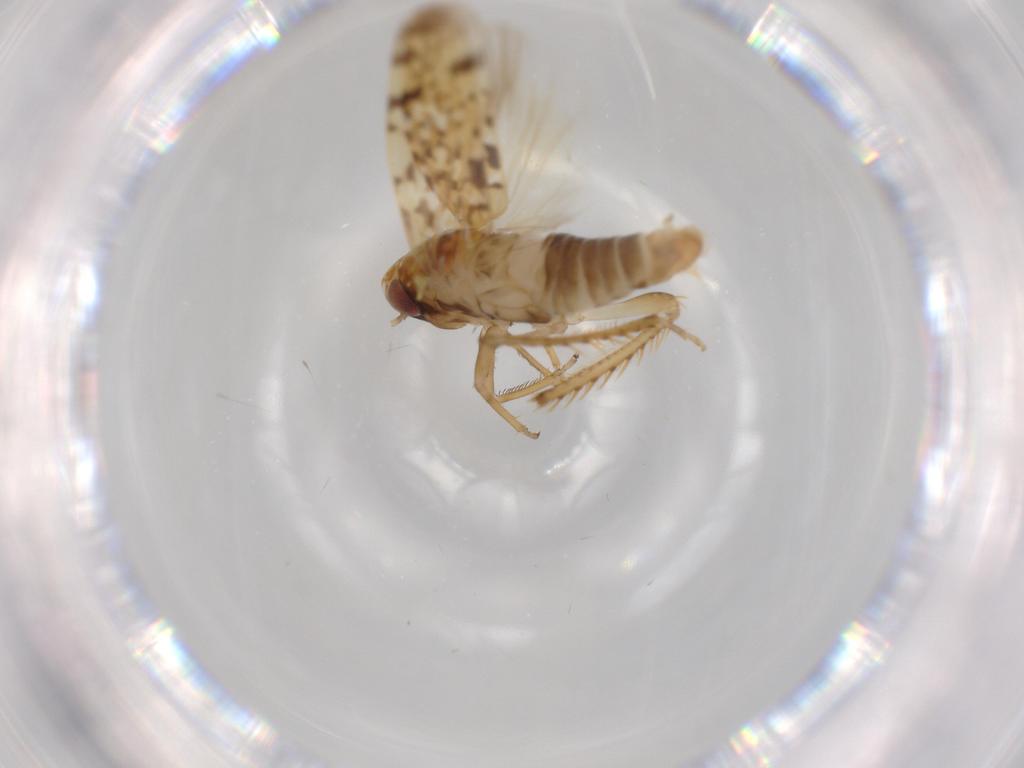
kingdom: Animalia
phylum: Arthropoda
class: Insecta
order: Hemiptera
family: Cicadellidae
